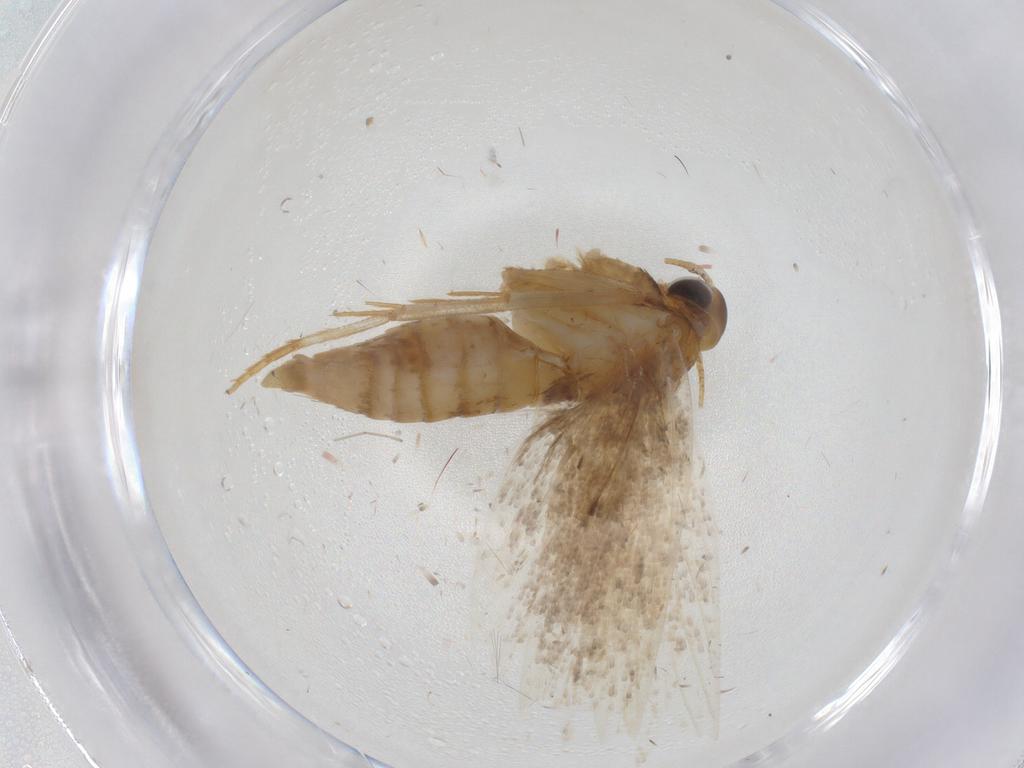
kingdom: Animalia
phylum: Arthropoda
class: Insecta
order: Lepidoptera
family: Oecophoridae
